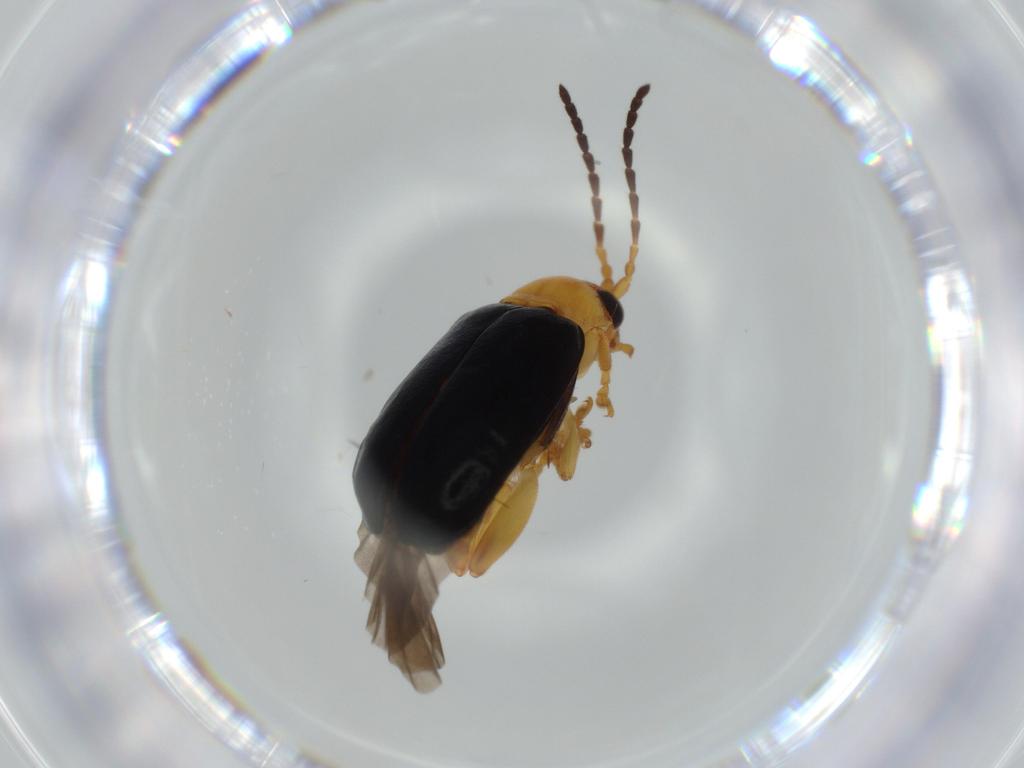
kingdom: Animalia
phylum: Arthropoda
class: Insecta
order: Coleoptera
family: Chrysomelidae
